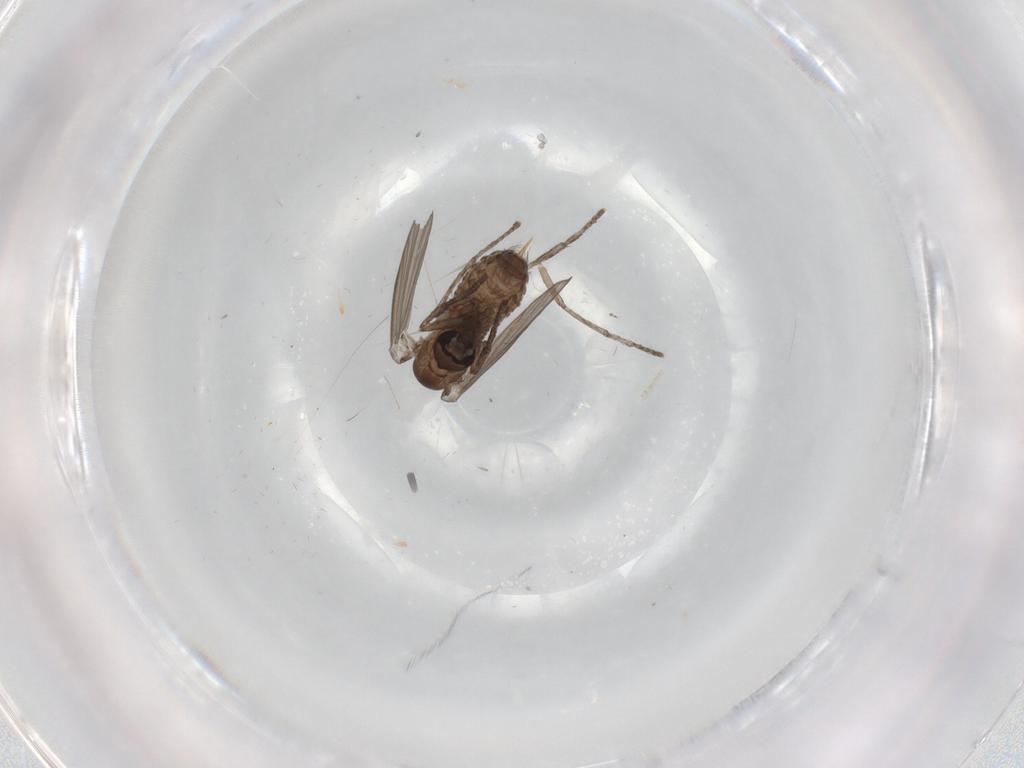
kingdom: Animalia
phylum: Arthropoda
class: Insecta
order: Diptera
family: Psychodidae
